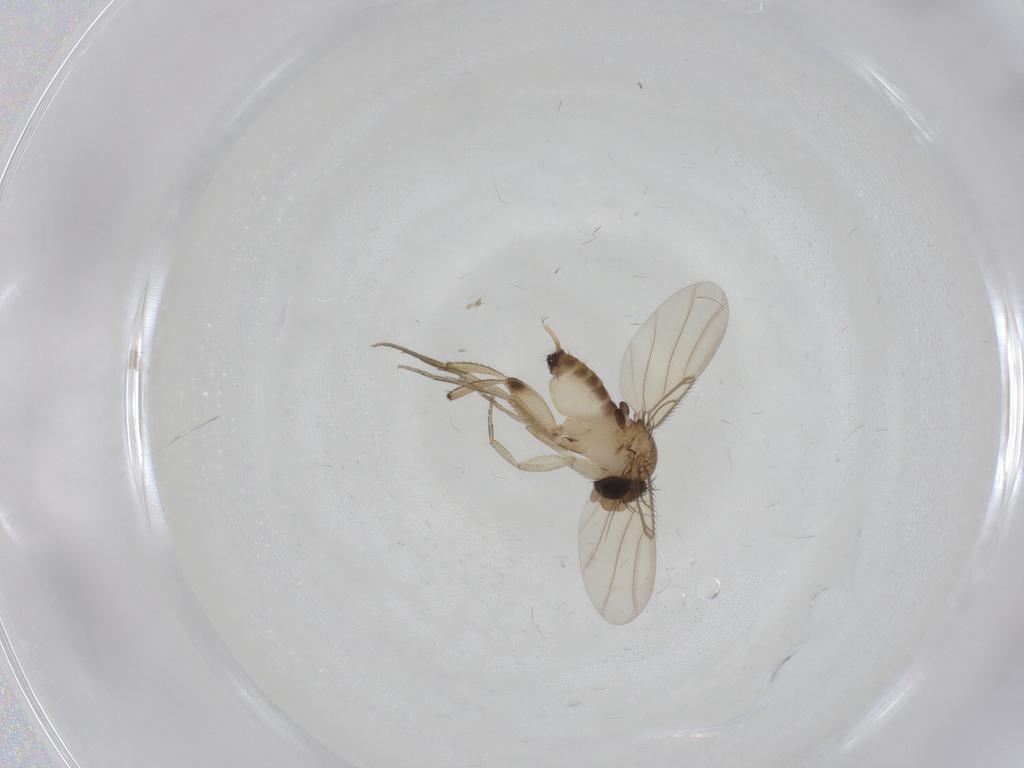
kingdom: Animalia
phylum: Arthropoda
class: Insecta
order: Diptera
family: Phoridae
